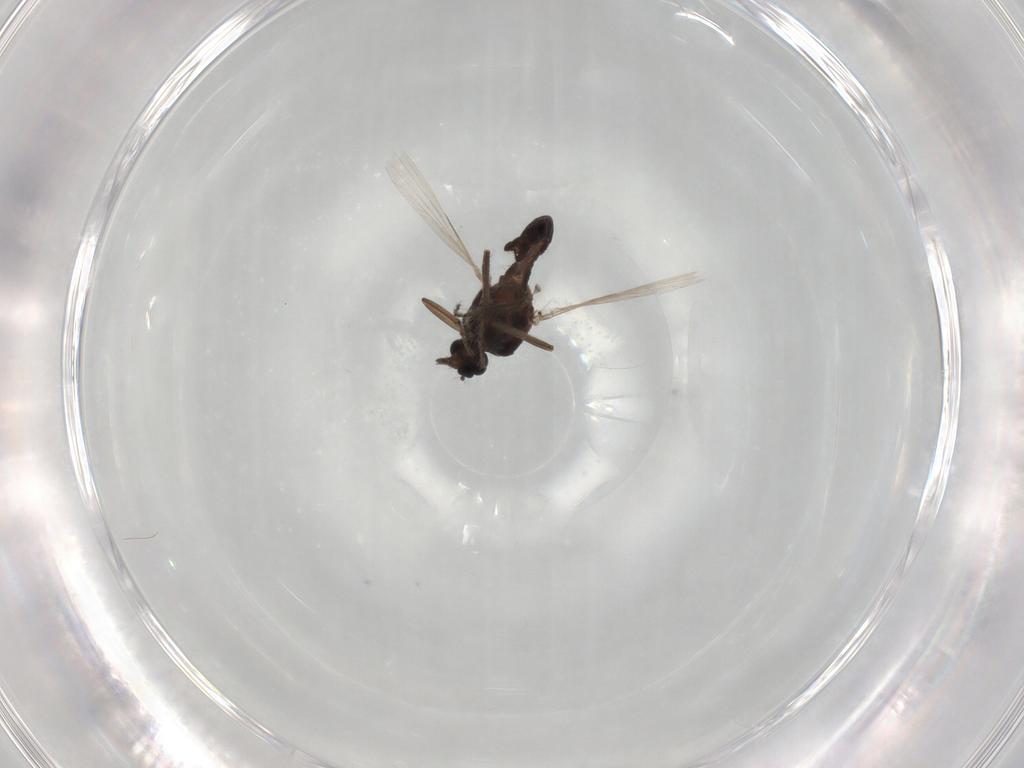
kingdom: Animalia
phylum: Arthropoda
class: Insecta
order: Diptera
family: Ceratopogonidae
